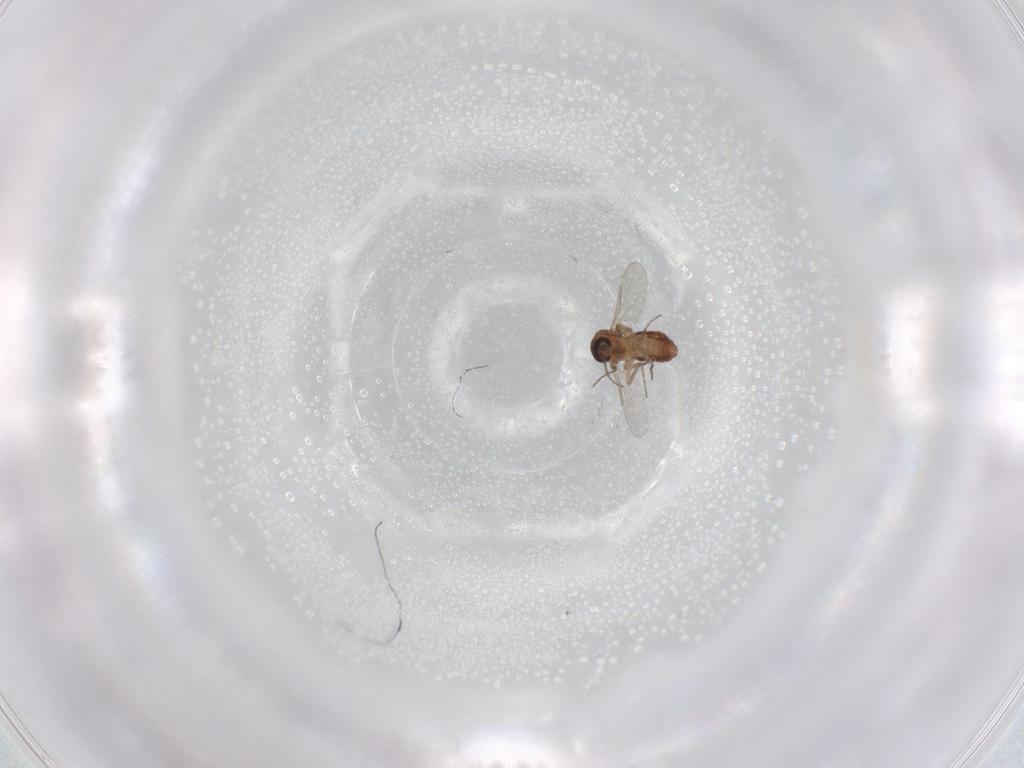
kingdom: Animalia
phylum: Arthropoda
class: Insecta
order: Diptera
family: Ceratopogonidae
